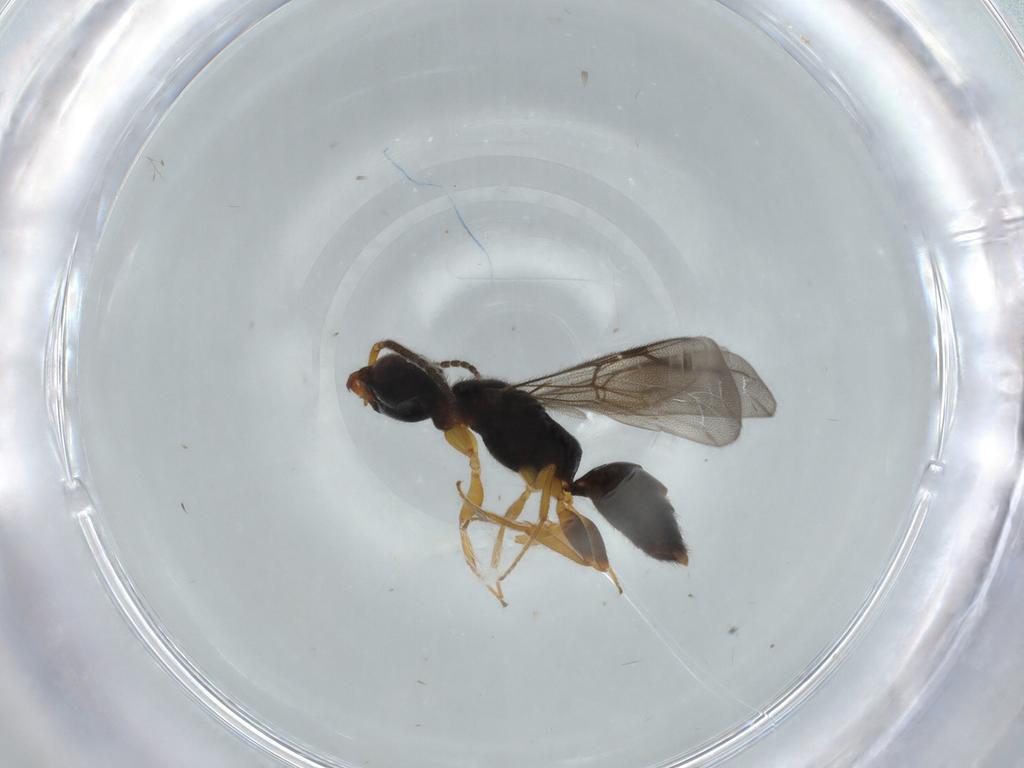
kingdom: Animalia
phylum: Arthropoda
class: Insecta
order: Hymenoptera
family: Bethylidae
